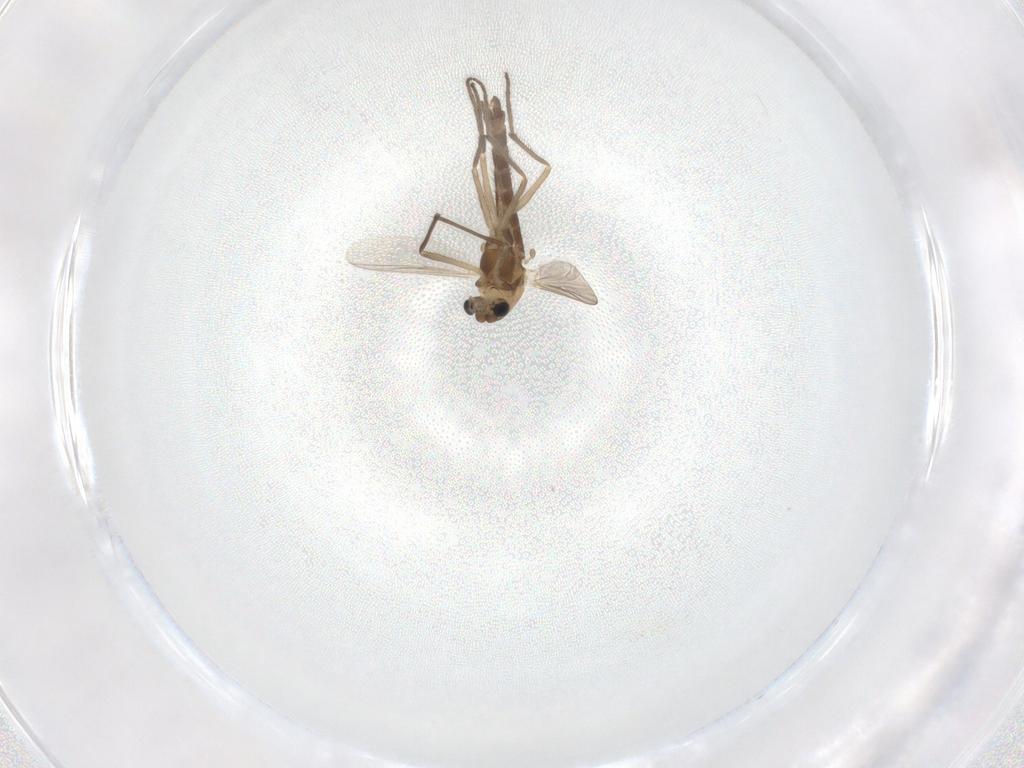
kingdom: Animalia
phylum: Arthropoda
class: Insecta
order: Diptera
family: Chironomidae
